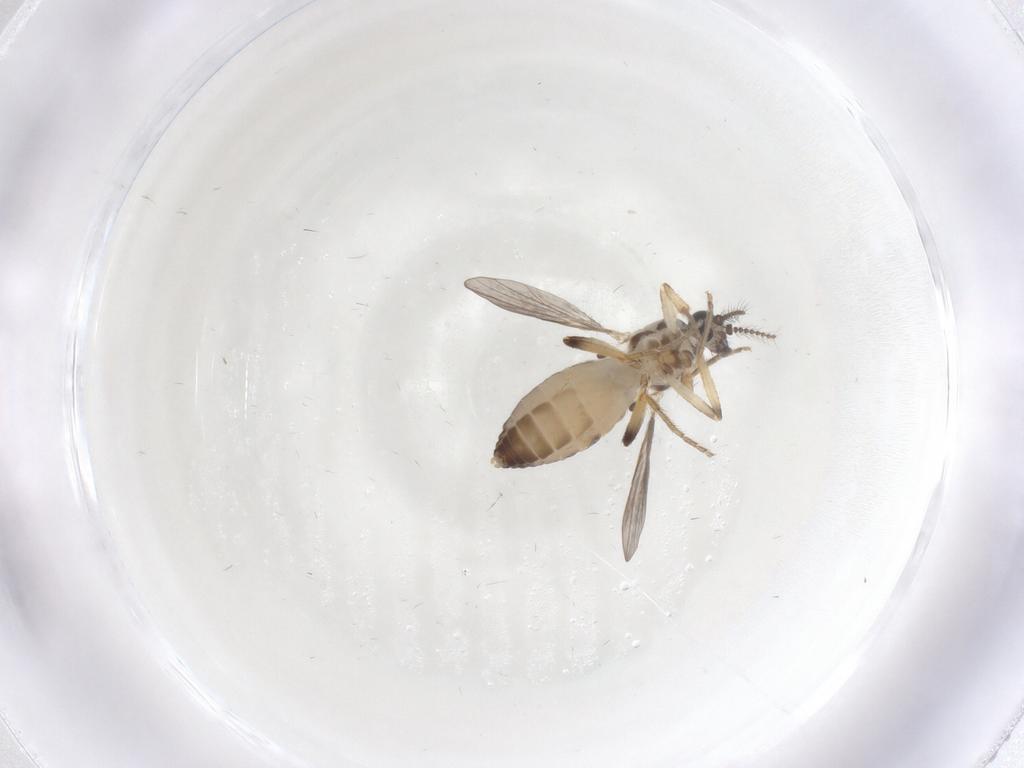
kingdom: Animalia
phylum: Arthropoda
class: Insecta
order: Diptera
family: Ceratopogonidae
